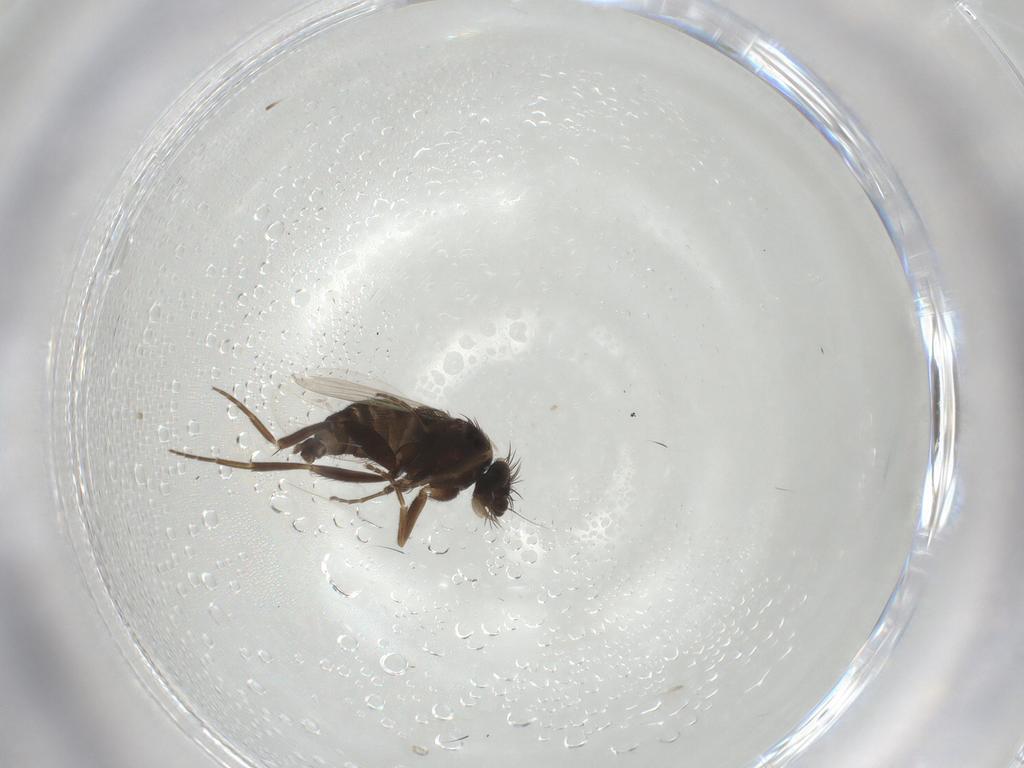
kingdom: Animalia
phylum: Arthropoda
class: Insecta
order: Diptera
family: Phoridae
